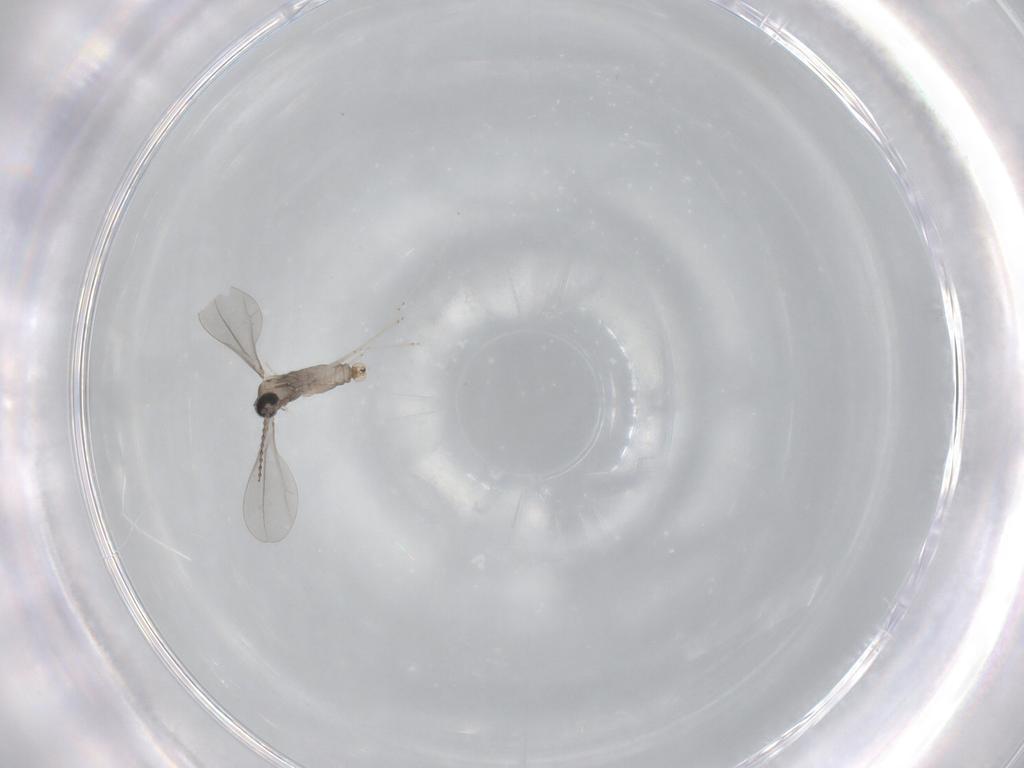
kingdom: Animalia
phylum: Arthropoda
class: Insecta
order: Diptera
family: Cecidomyiidae
